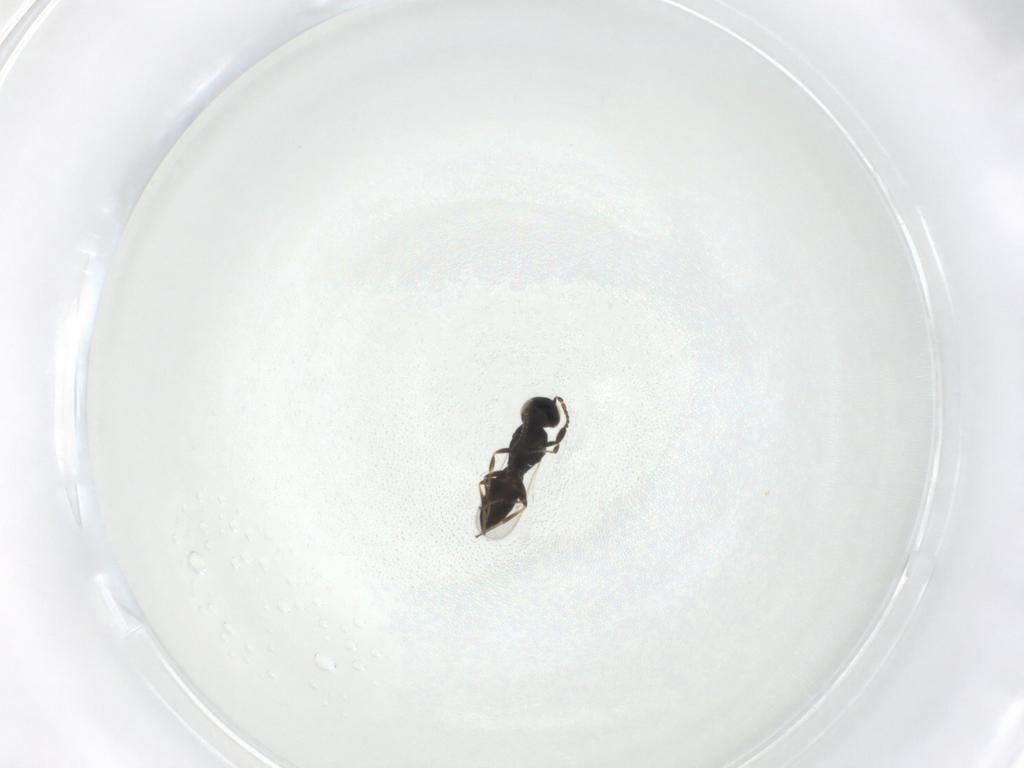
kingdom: Animalia
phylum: Arthropoda
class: Insecta
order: Hymenoptera
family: Scelionidae
